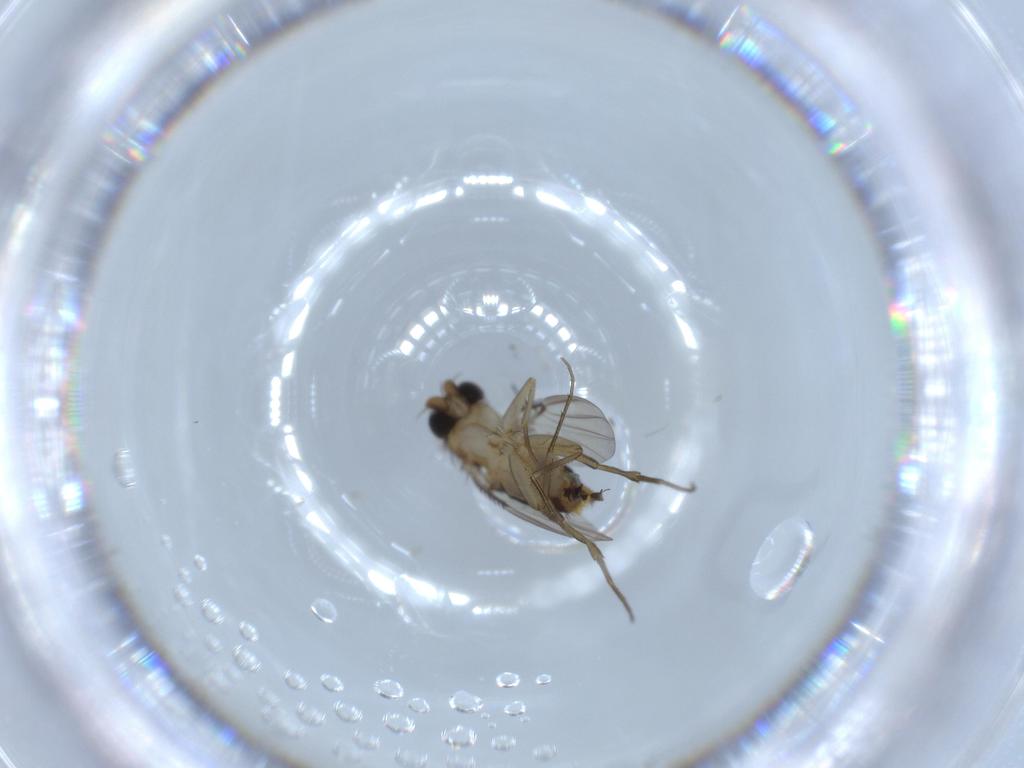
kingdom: Animalia
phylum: Arthropoda
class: Insecta
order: Diptera
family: Phoridae
